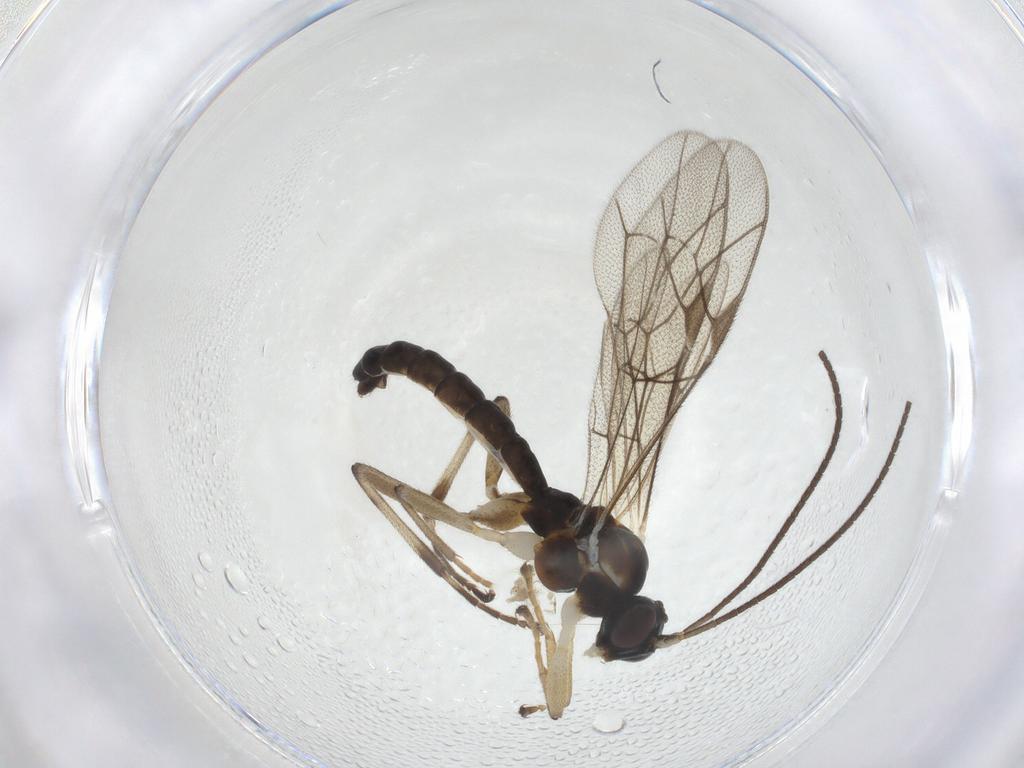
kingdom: Animalia
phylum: Arthropoda
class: Insecta
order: Hymenoptera
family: Ichneumonidae
